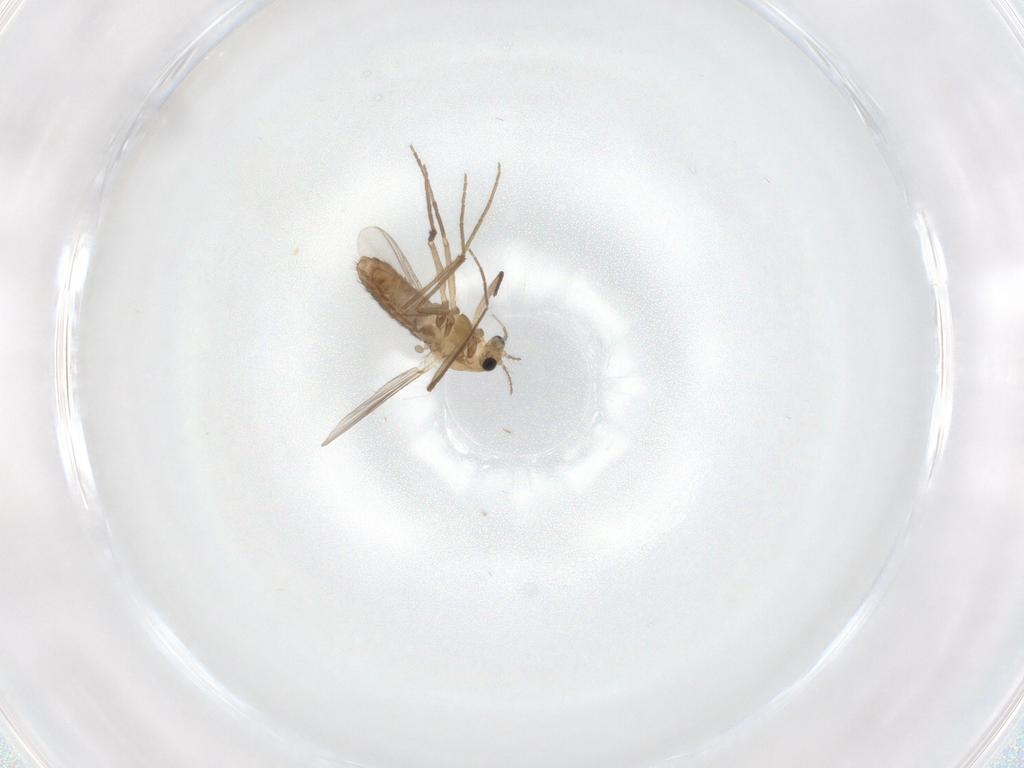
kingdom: Animalia
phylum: Arthropoda
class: Insecta
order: Diptera
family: Chironomidae
